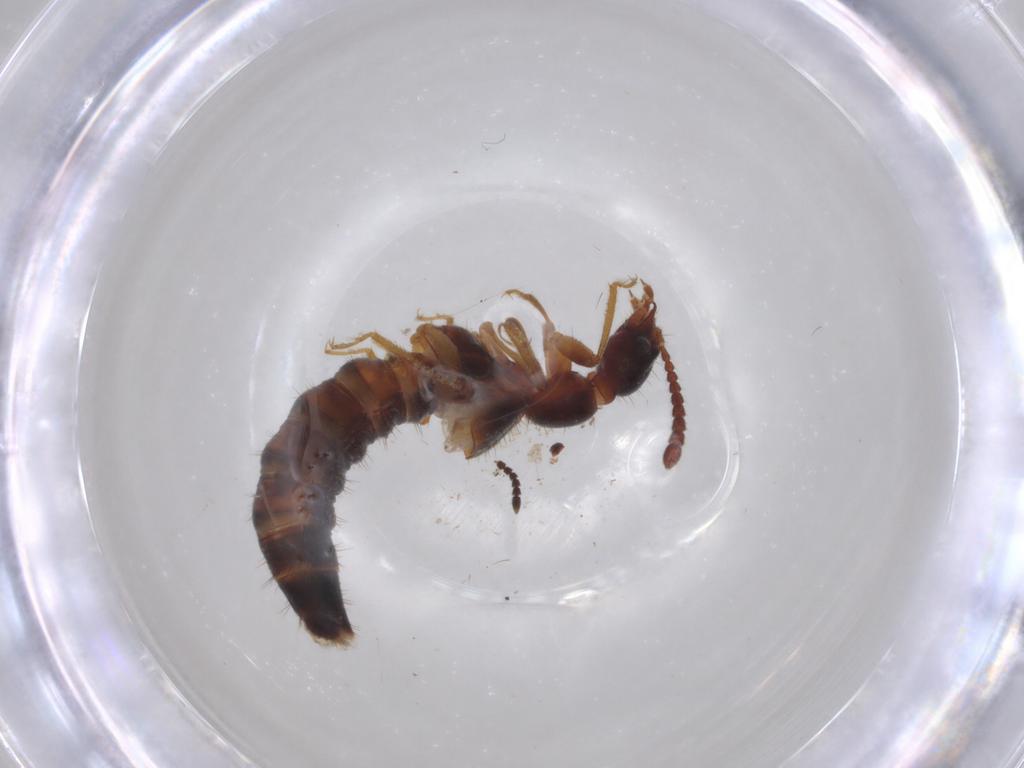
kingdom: Animalia
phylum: Arthropoda
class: Insecta
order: Coleoptera
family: Staphylinidae
